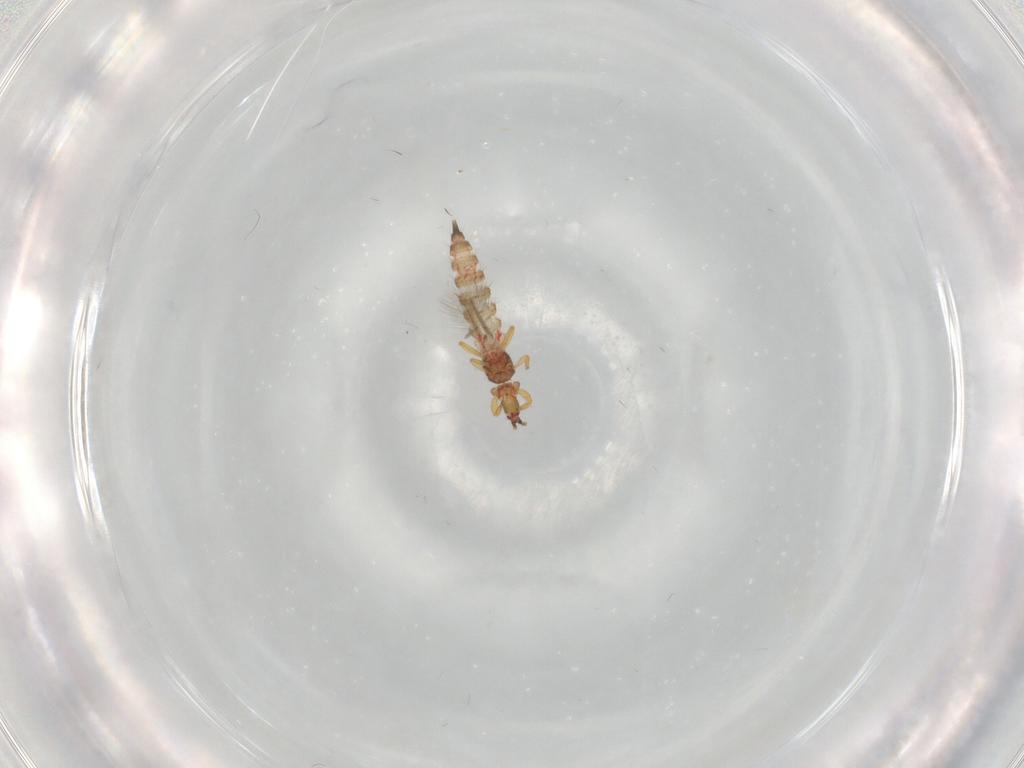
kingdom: Animalia
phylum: Arthropoda
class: Insecta
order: Thysanoptera
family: Phlaeothripidae
